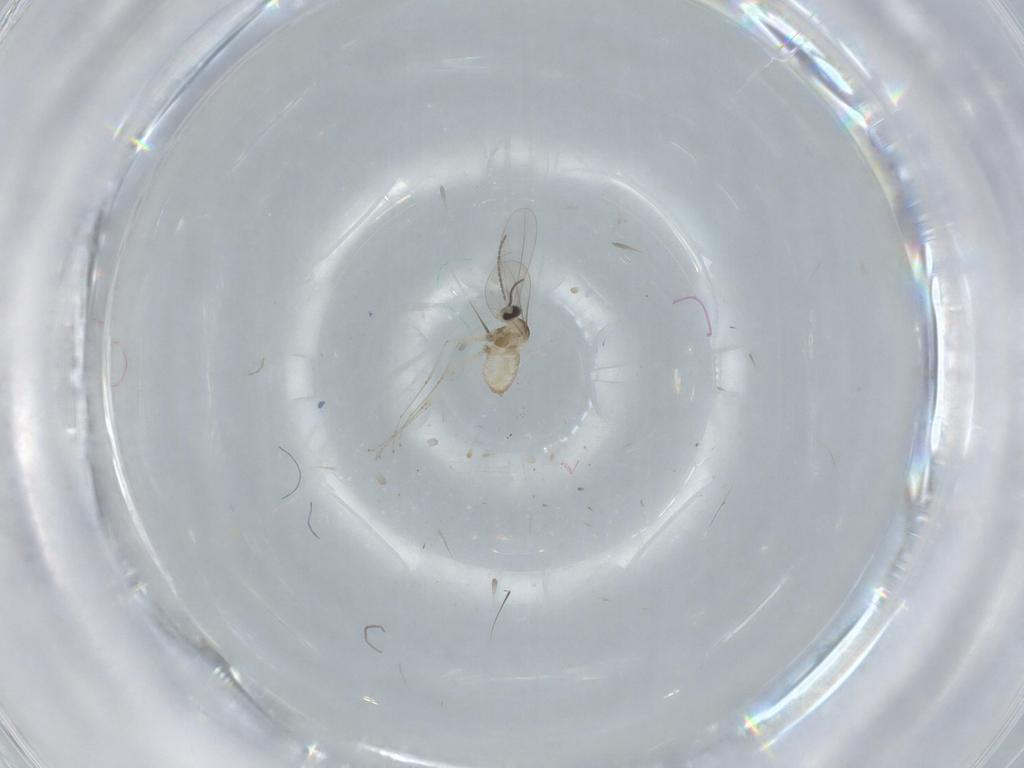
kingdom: Animalia
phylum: Arthropoda
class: Insecta
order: Diptera
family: Cecidomyiidae
